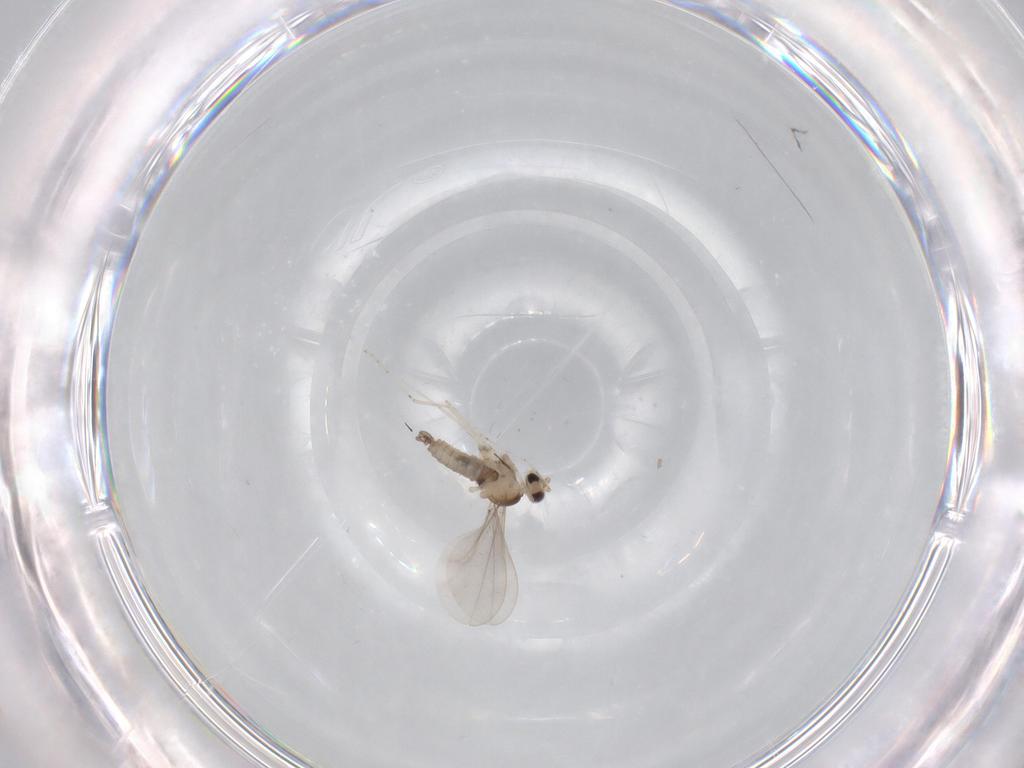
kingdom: Animalia
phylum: Arthropoda
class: Insecta
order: Diptera
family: Cecidomyiidae
